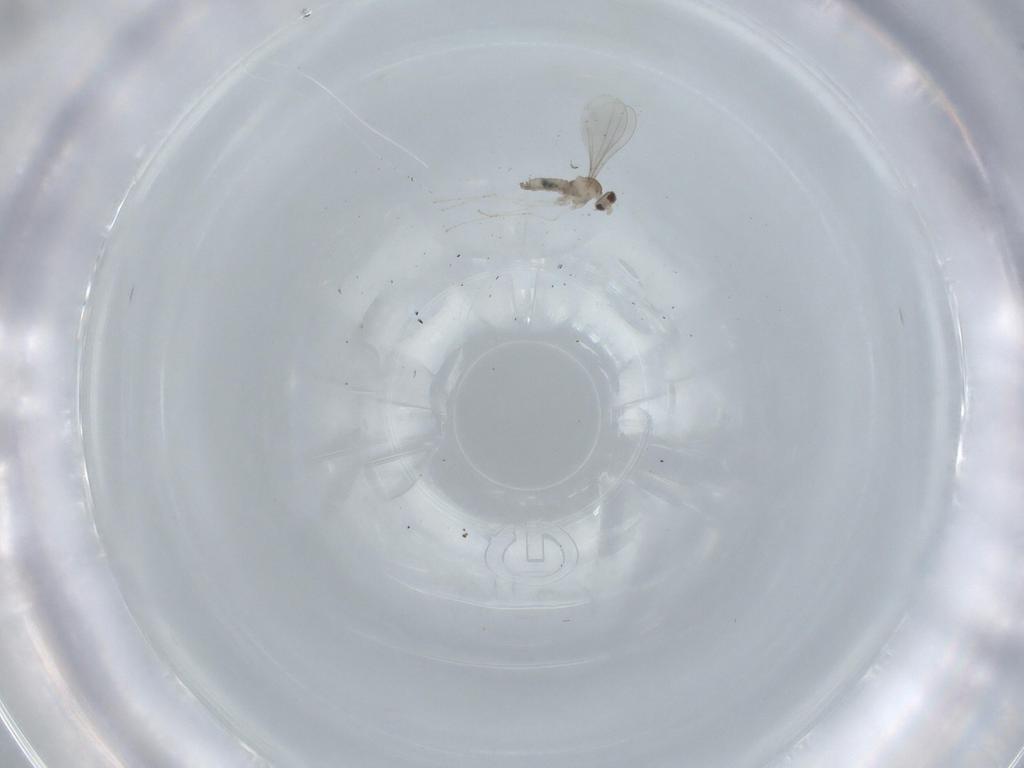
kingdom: Animalia
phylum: Arthropoda
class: Insecta
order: Diptera
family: Cecidomyiidae
